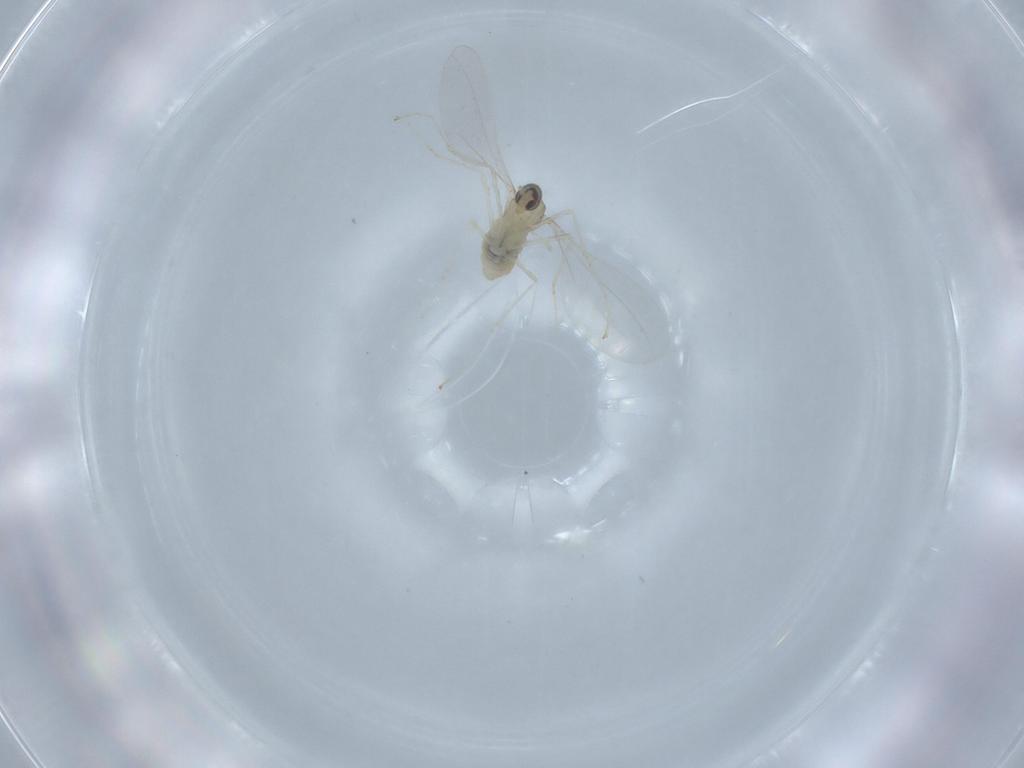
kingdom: Animalia
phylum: Arthropoda
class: Insecta
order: Diptera
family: Cecidomyiidae
